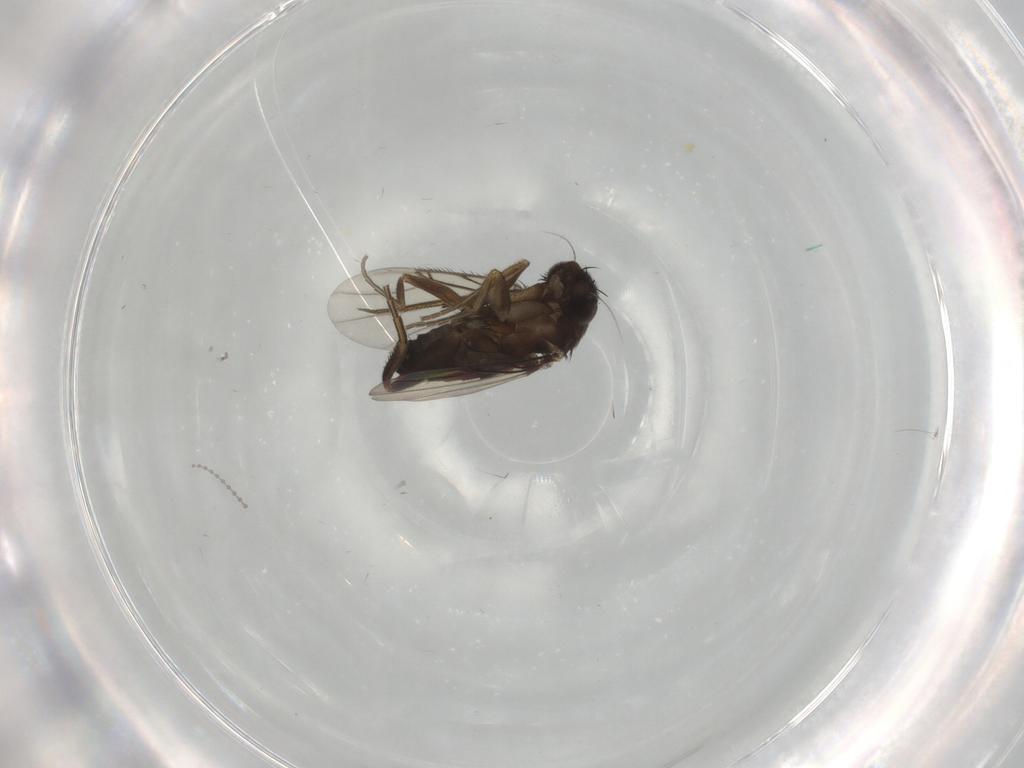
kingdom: Animalia
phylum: Arthropoda
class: Insecta
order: Diptera
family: Phoridae
